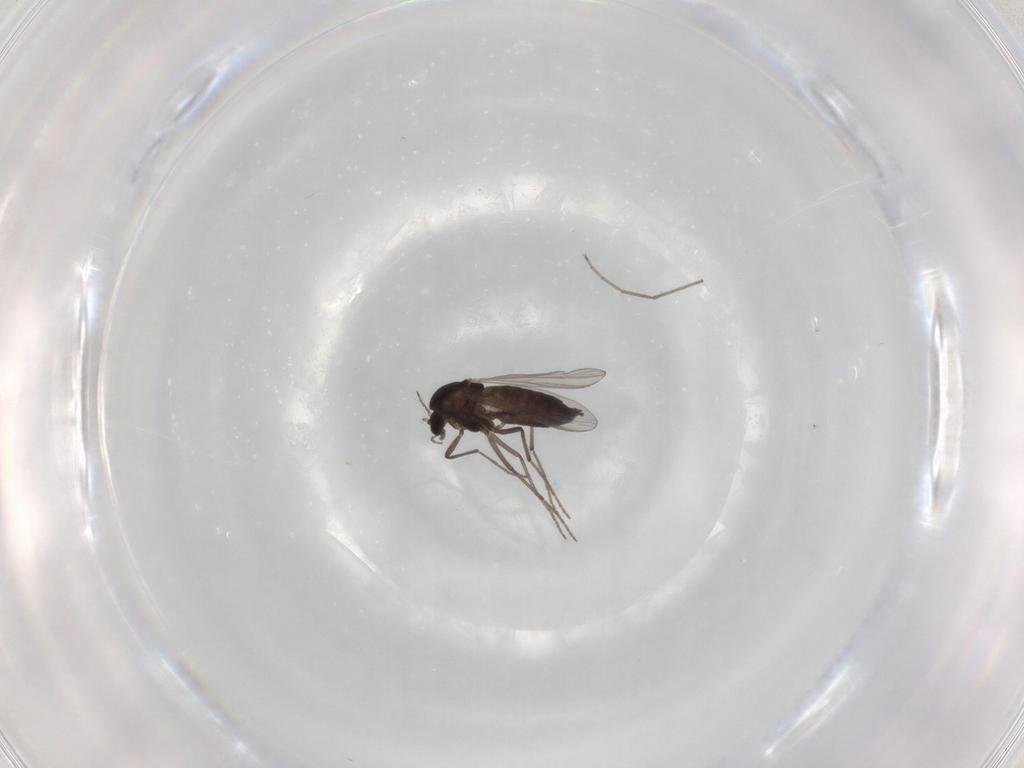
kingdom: Animalia
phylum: Arthropoda
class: Insecta
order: Diptera
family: Chironomidae
